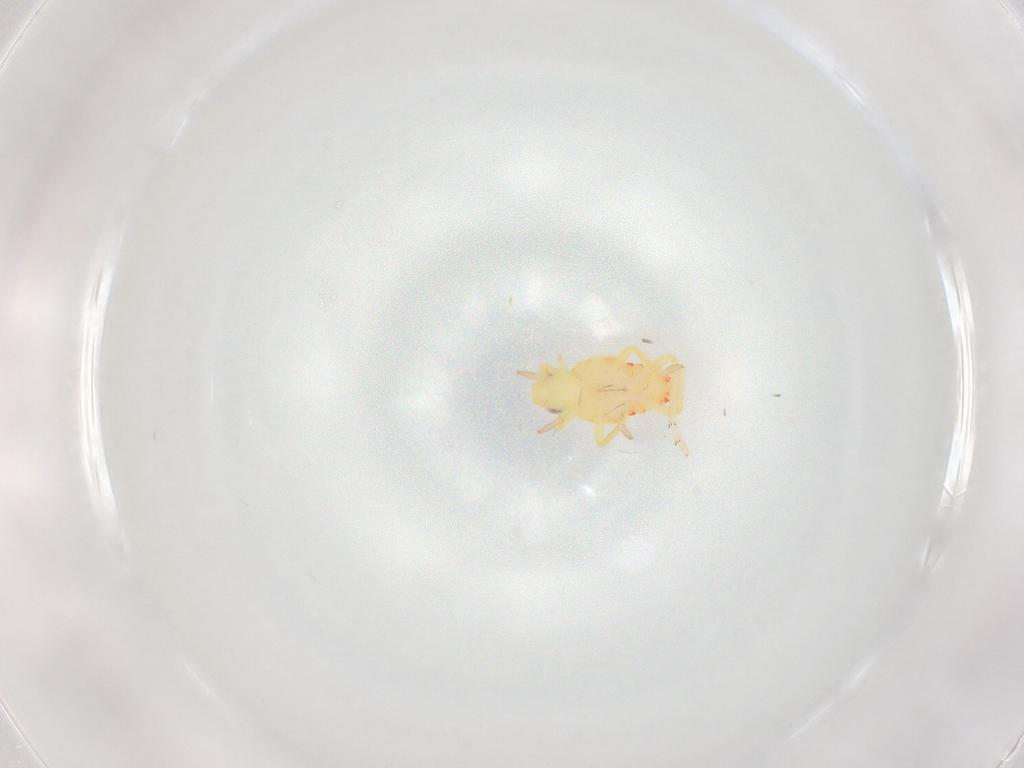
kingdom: Animalia
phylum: Arthropoda
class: Insecta
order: Hemiptera
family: Tropiduchidae
